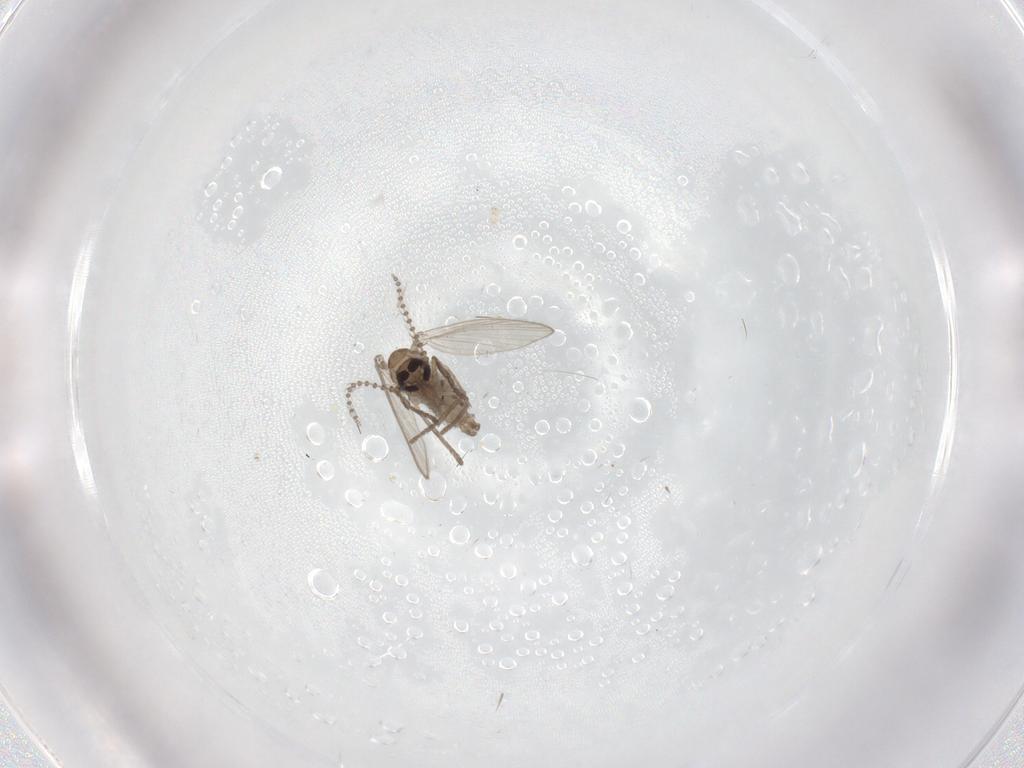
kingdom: Animalia
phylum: Arthropoda
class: Insecta
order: Diptera
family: Psychodidae
